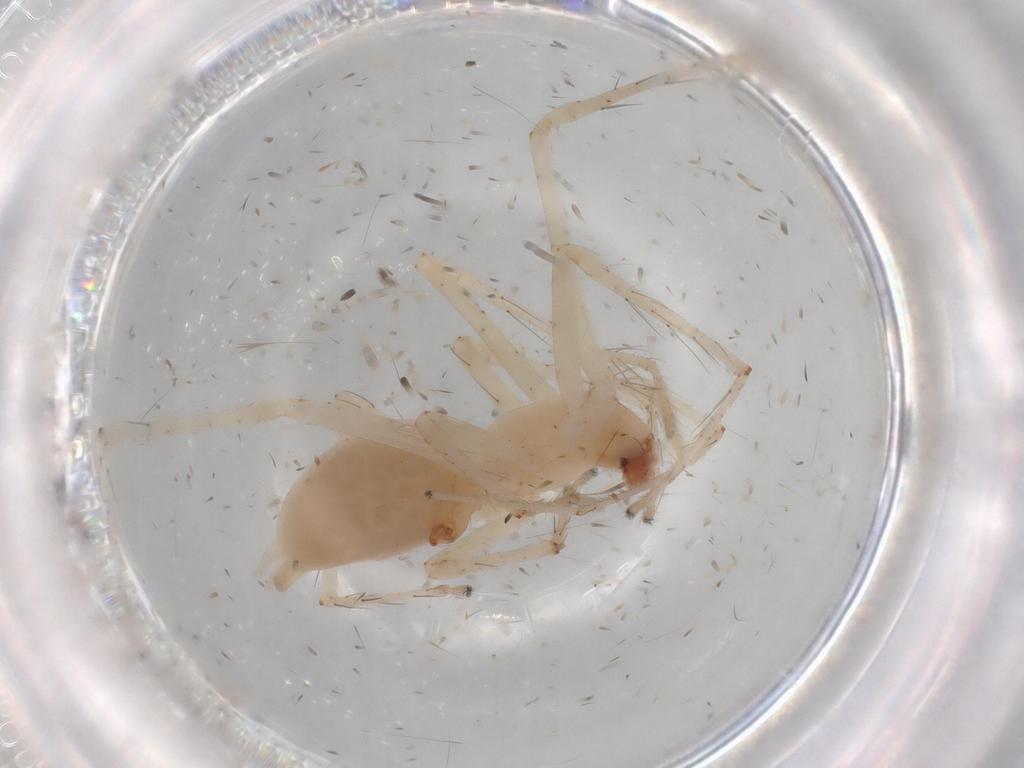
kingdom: Animalia
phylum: Arthropoda
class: Arachnida
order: Araneae
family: Anyphaenidae
